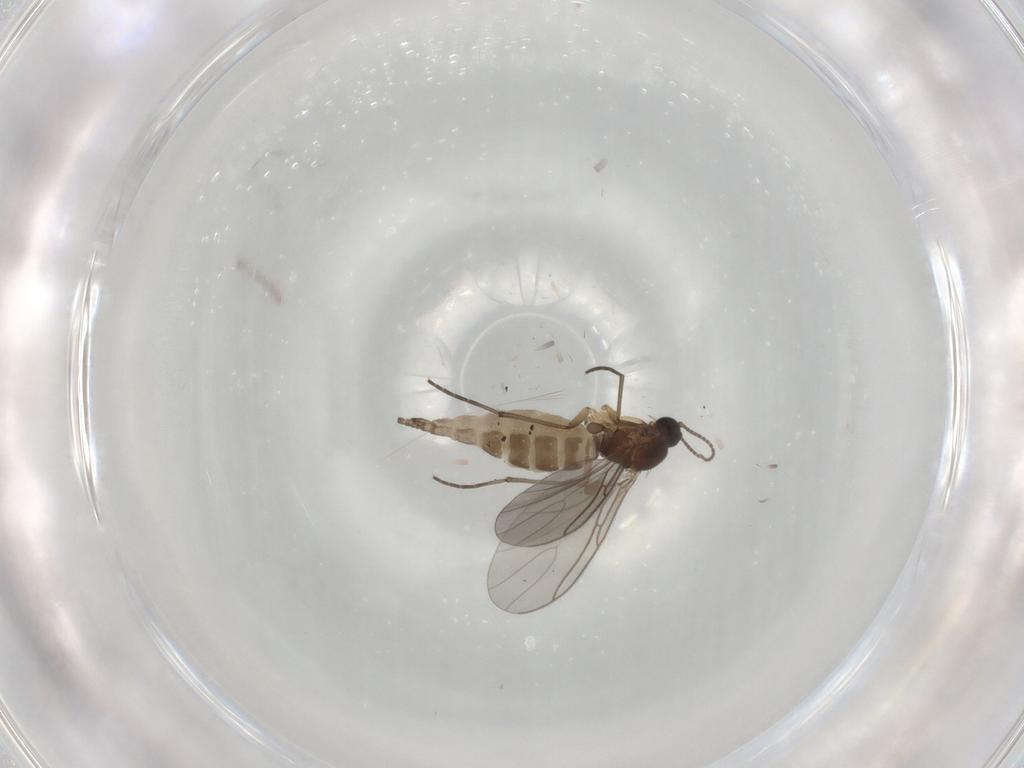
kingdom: Animalia
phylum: Arthropoda
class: Insecta
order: Diptera
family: Sciaridae
